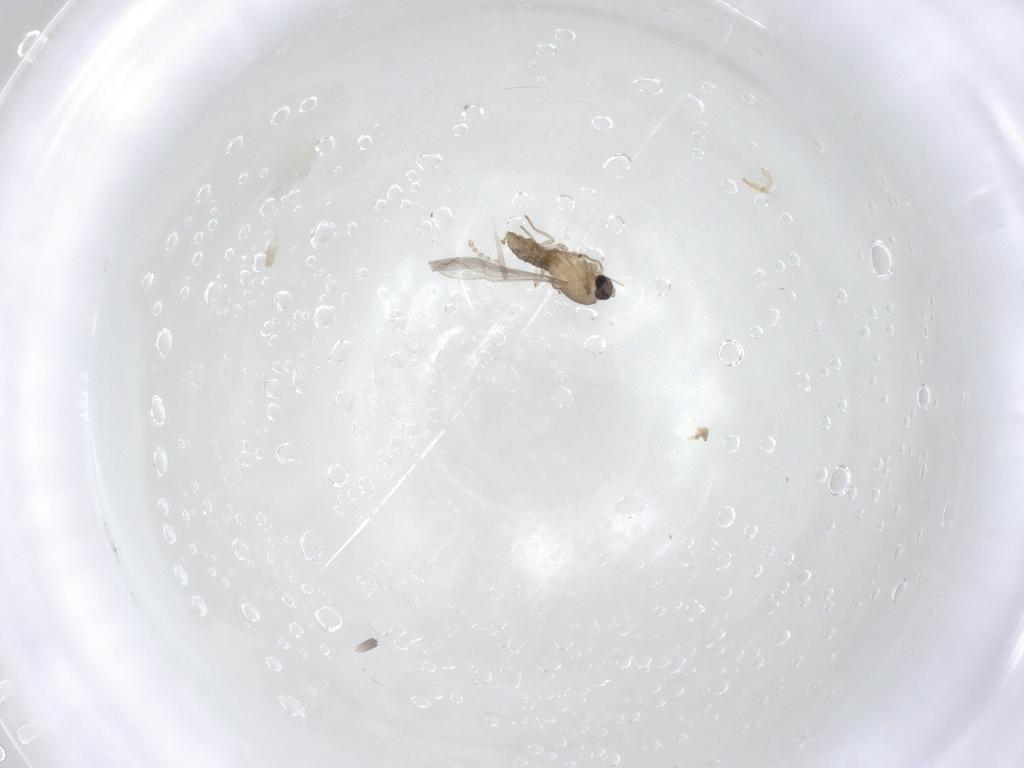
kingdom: Animalia
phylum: Arthropoda
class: Insecta
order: Diptera
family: Cecidomyiidae
